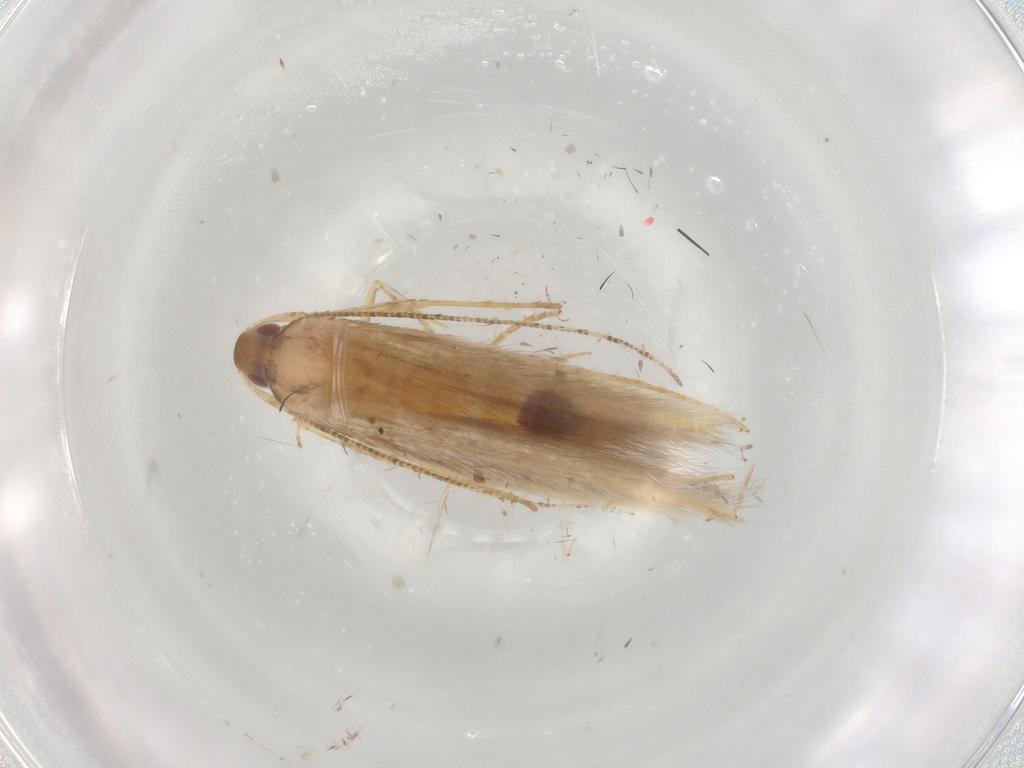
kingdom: Animalia
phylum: Arthropoda
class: Insecta
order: Lepidoptera
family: Cosmopterigidae
